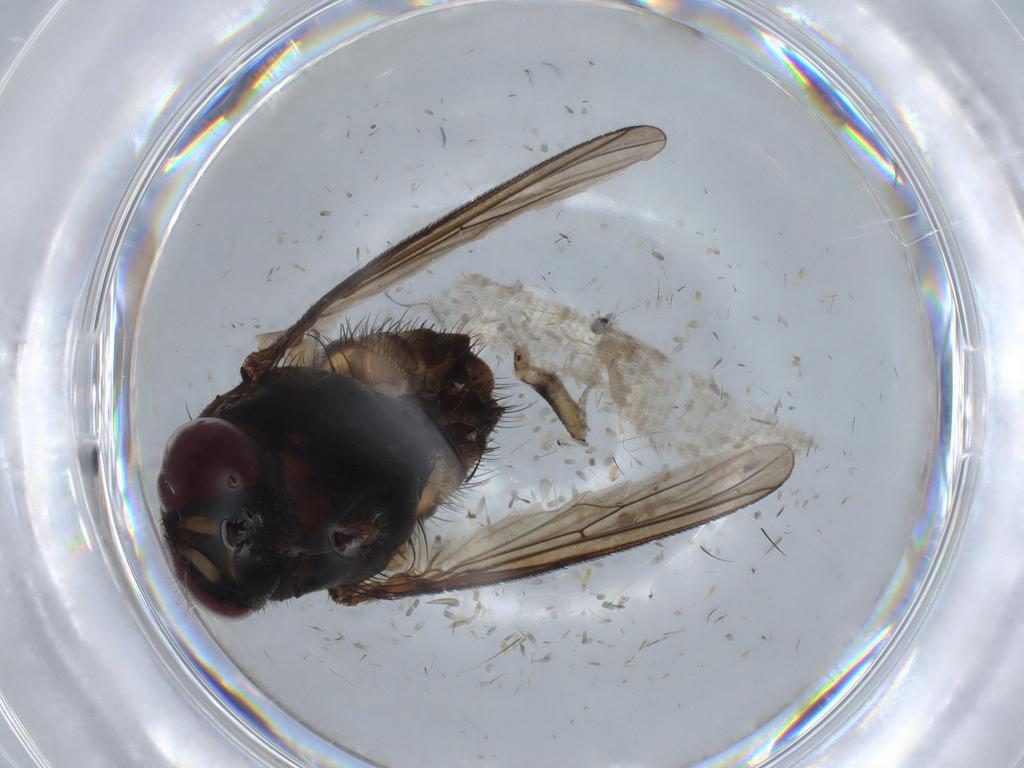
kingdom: Animalia
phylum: Arthropoda
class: Insecta
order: Diptera
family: Cecidomyiidae
